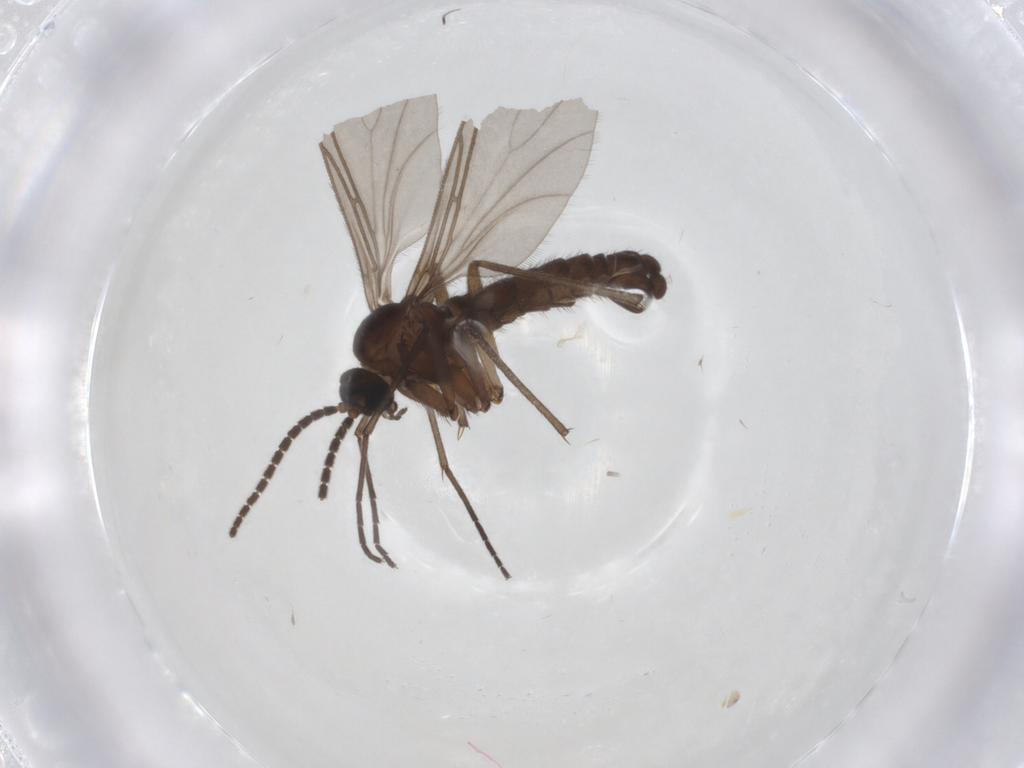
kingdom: Animalia
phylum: Arthropoda
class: Insecta
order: Diptera
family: Sciaridae
